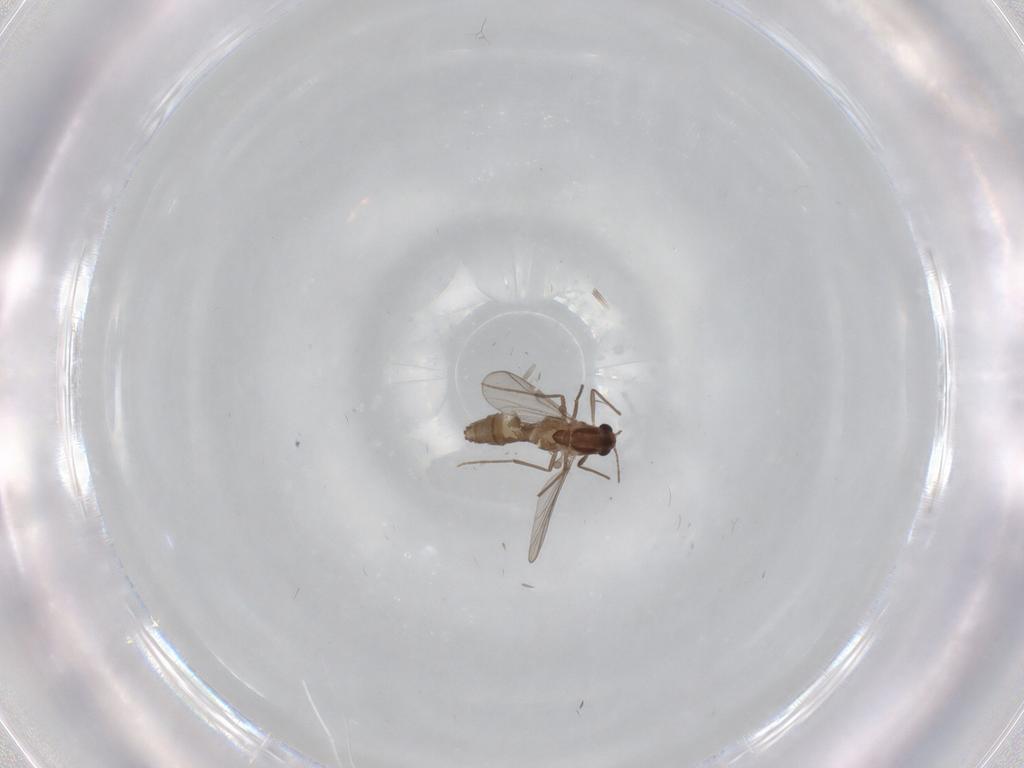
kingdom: Animalia
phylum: Arthropoda
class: Insecta
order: Diptera
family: Chironomidae
